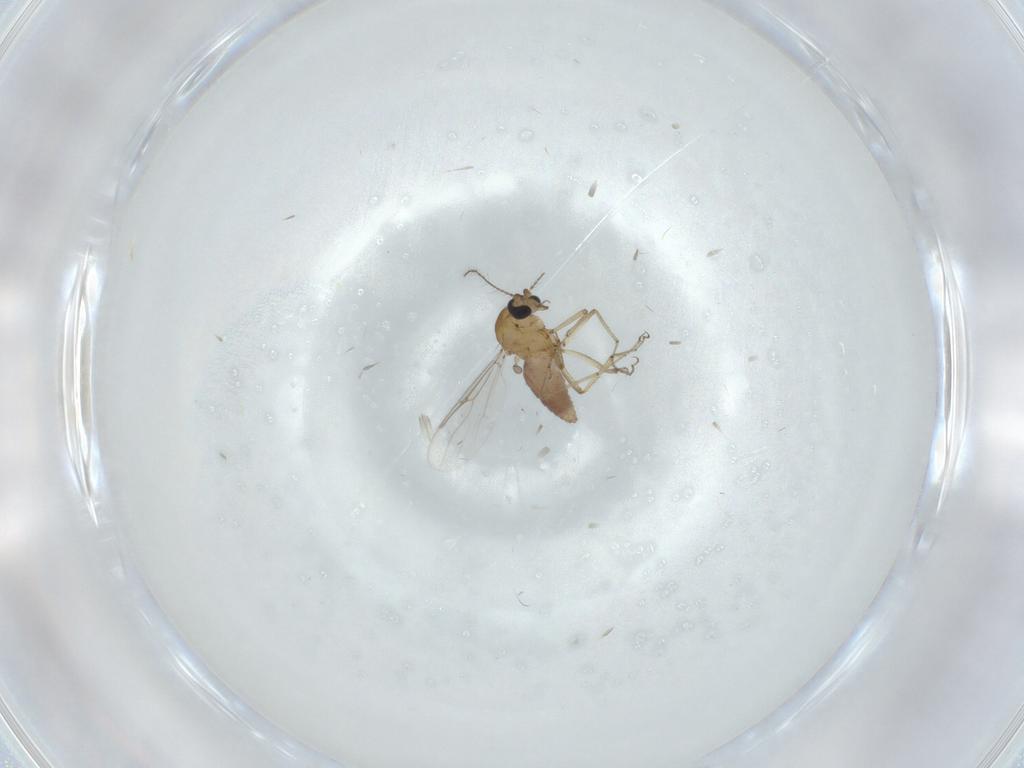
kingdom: Animalia
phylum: Arthropoda
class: Insecta
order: Diptera
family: Ceratopogonidae
